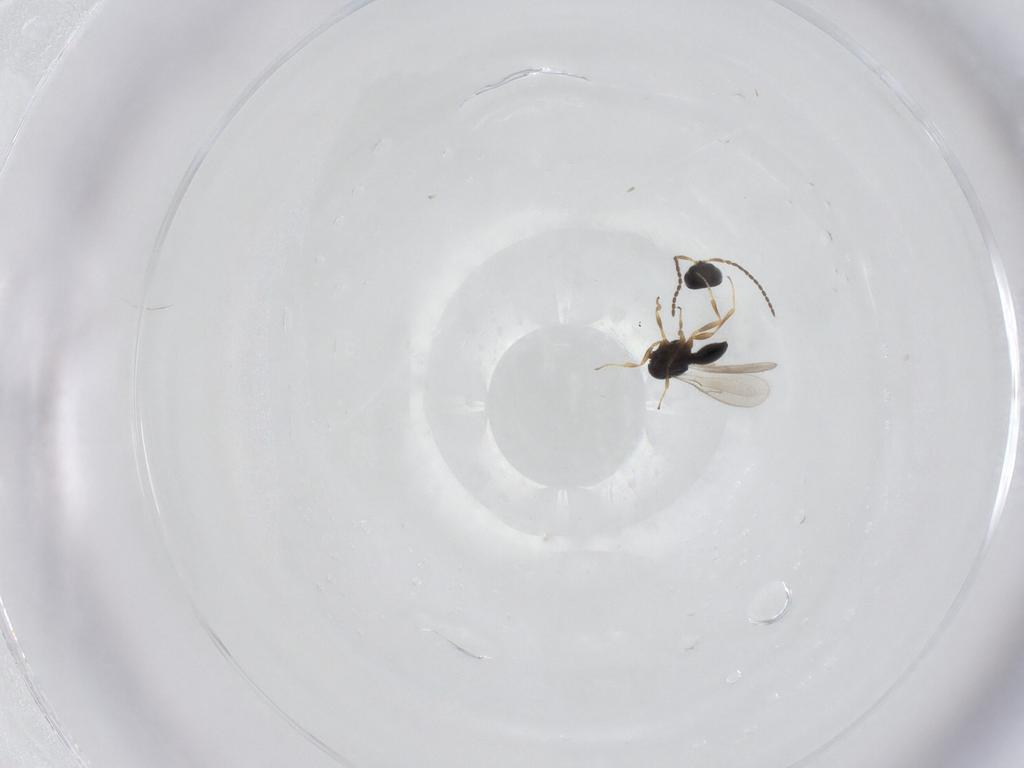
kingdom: Animalia
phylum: Arthropoda
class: Insecta
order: Hymenoptera
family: Scelionidae
